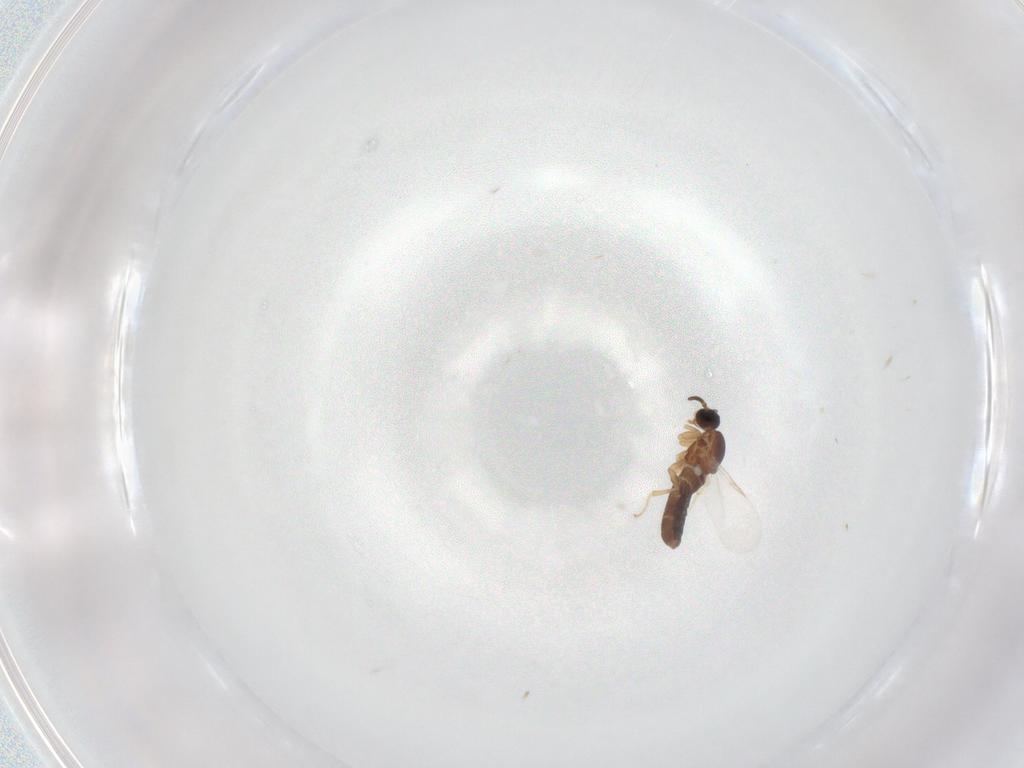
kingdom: Animalia
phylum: Arthropoda
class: Insecta
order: Diptera
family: Scatopsidae
